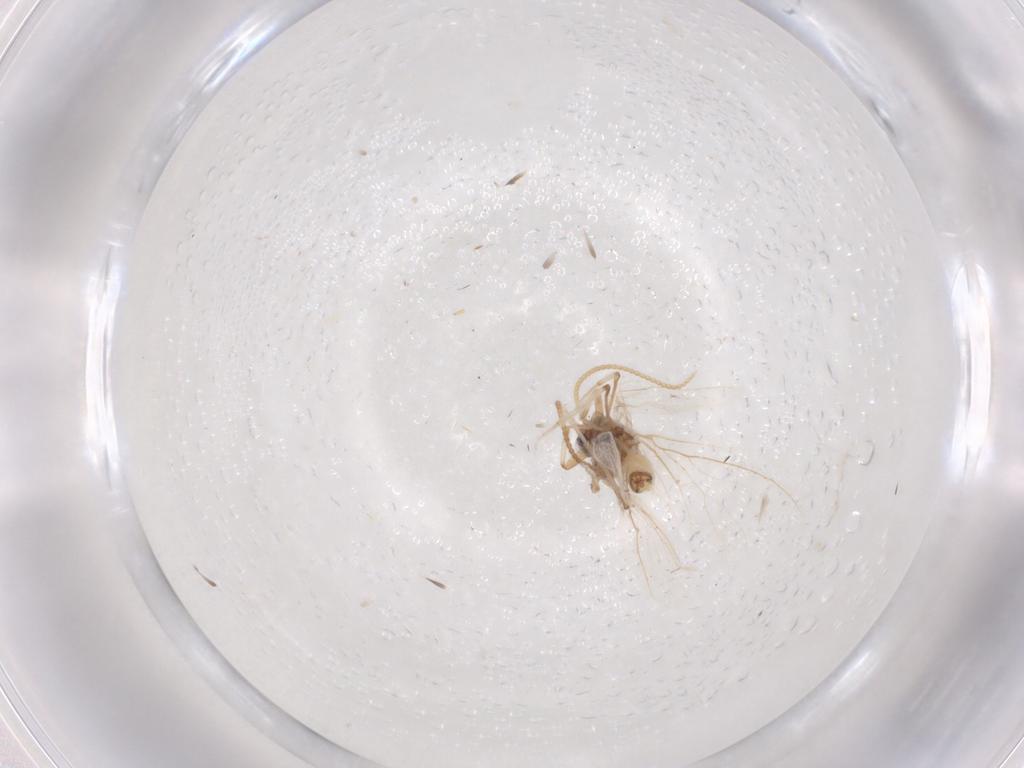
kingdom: Animalia
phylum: Arthropoda
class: Insecta
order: Neuroptera
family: Coniopterygidae
